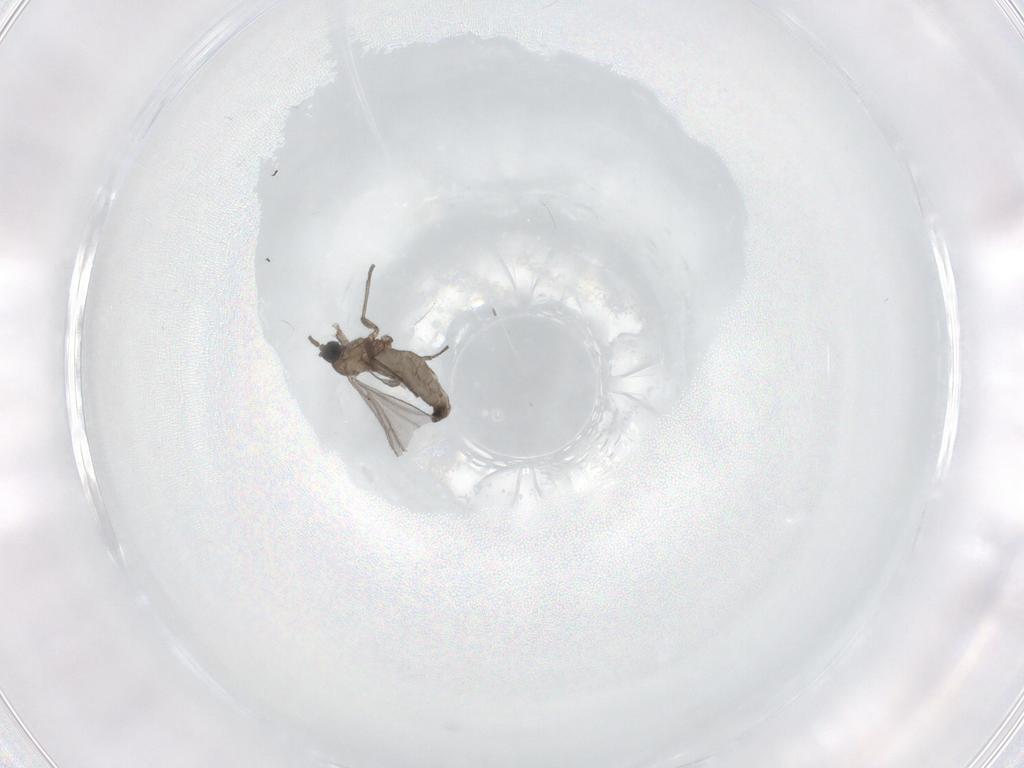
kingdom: Animalia
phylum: Arthropoda
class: Insecta
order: Diptera
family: Sciaridae
